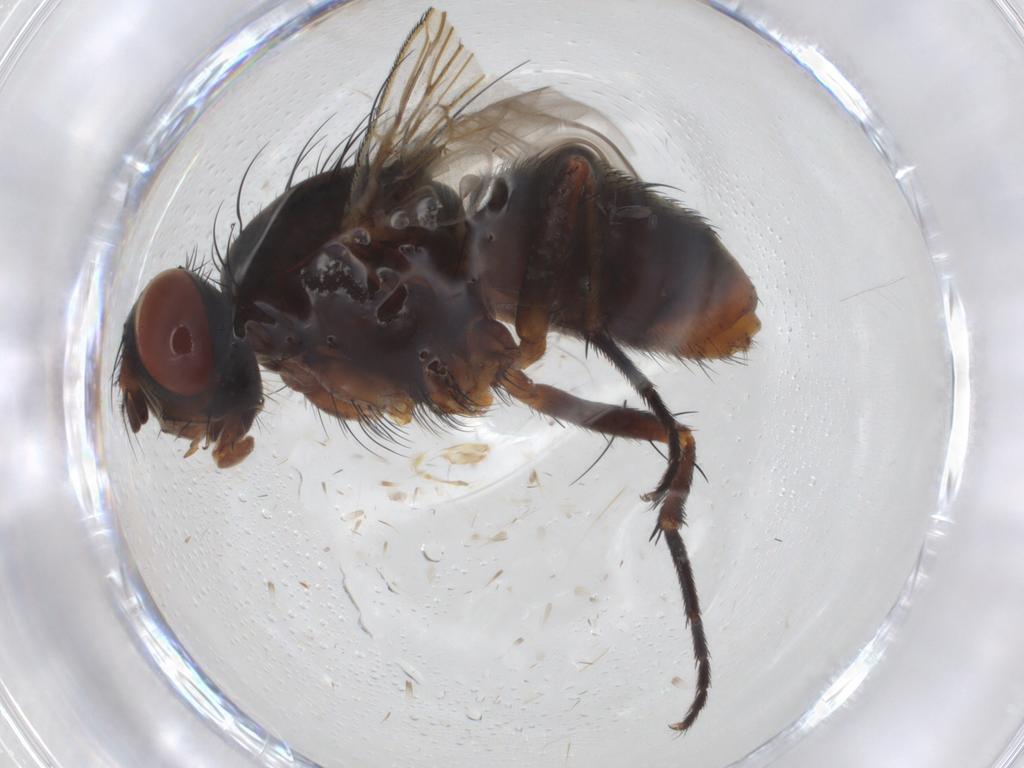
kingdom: Animalia
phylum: Arthropoda
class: Insecta
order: Diptera
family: Sarcophagidae
